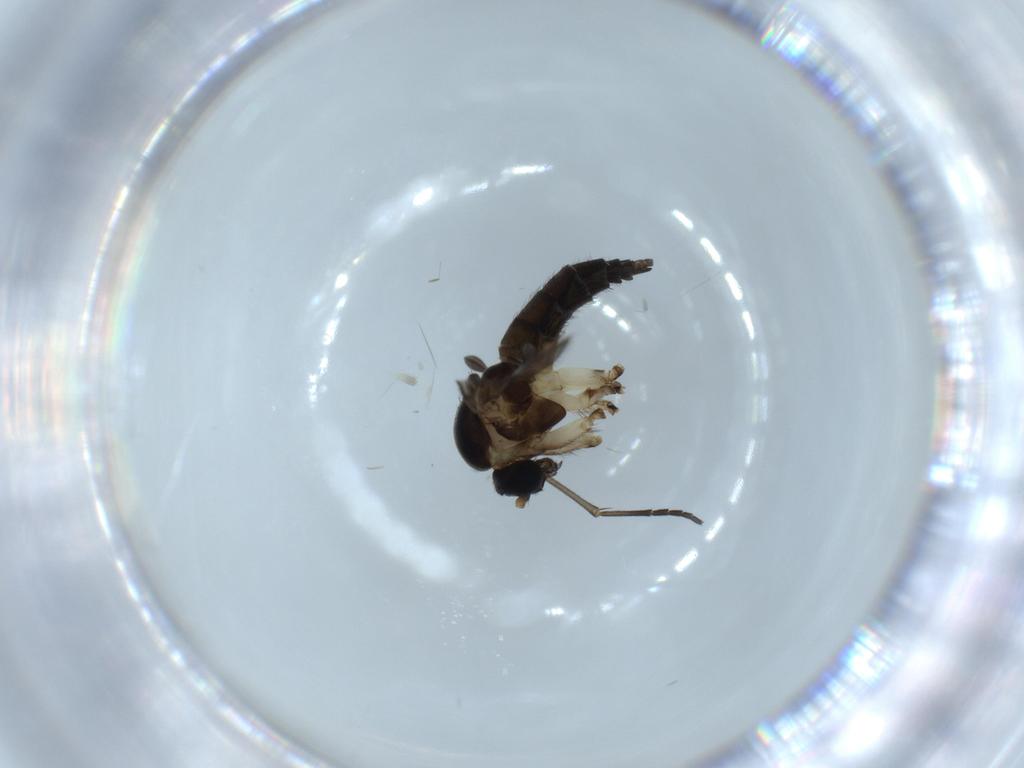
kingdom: Animalia
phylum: Arthropoda
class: Insecta
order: Diptera
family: Sciaridae
